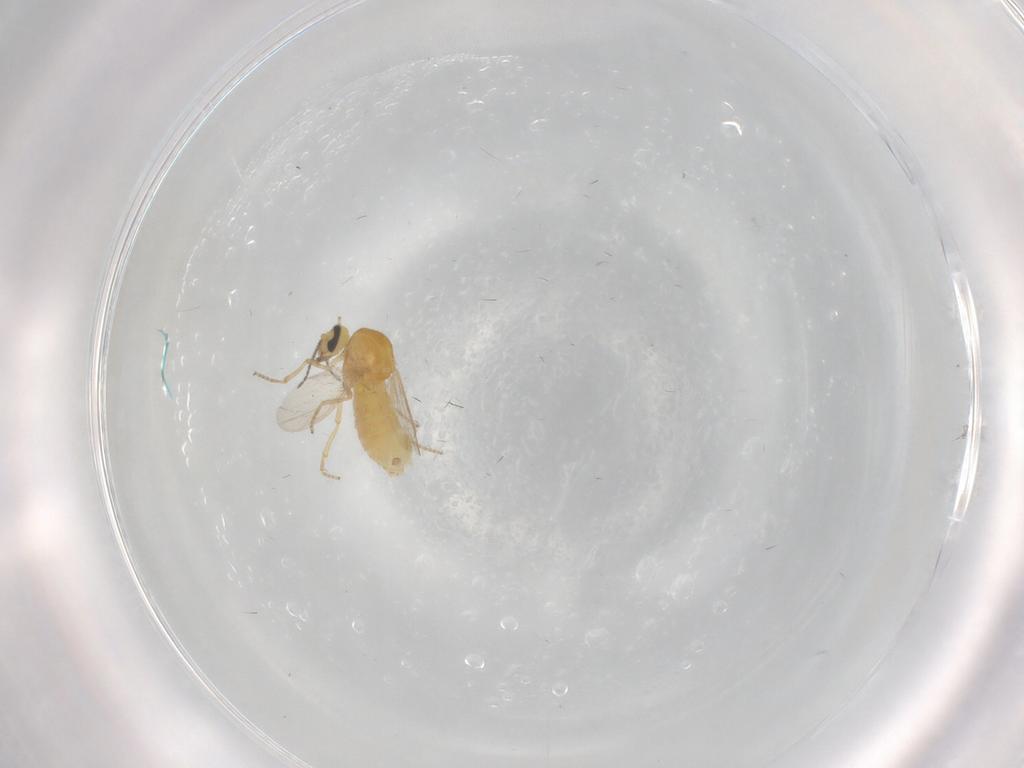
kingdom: Animalia
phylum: Arthropoda
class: Insecta
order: Diptera
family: Ceratopogonidae
